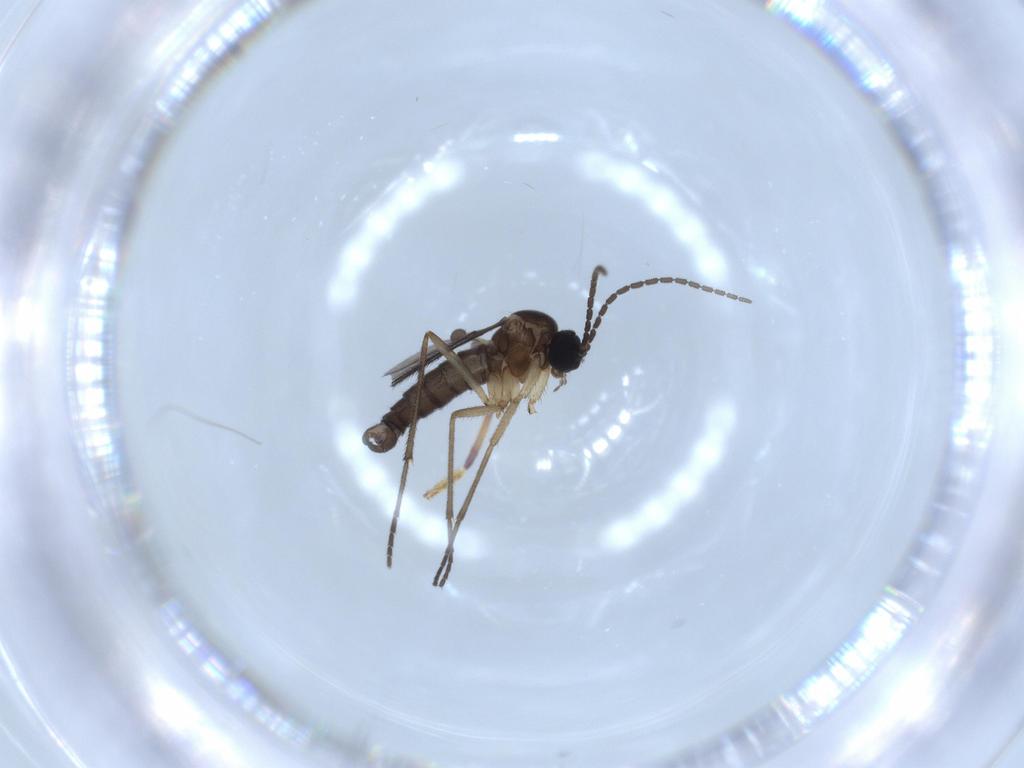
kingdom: Animalia
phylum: Arthropoda
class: Insecta
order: Diptera
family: Sciaridae
